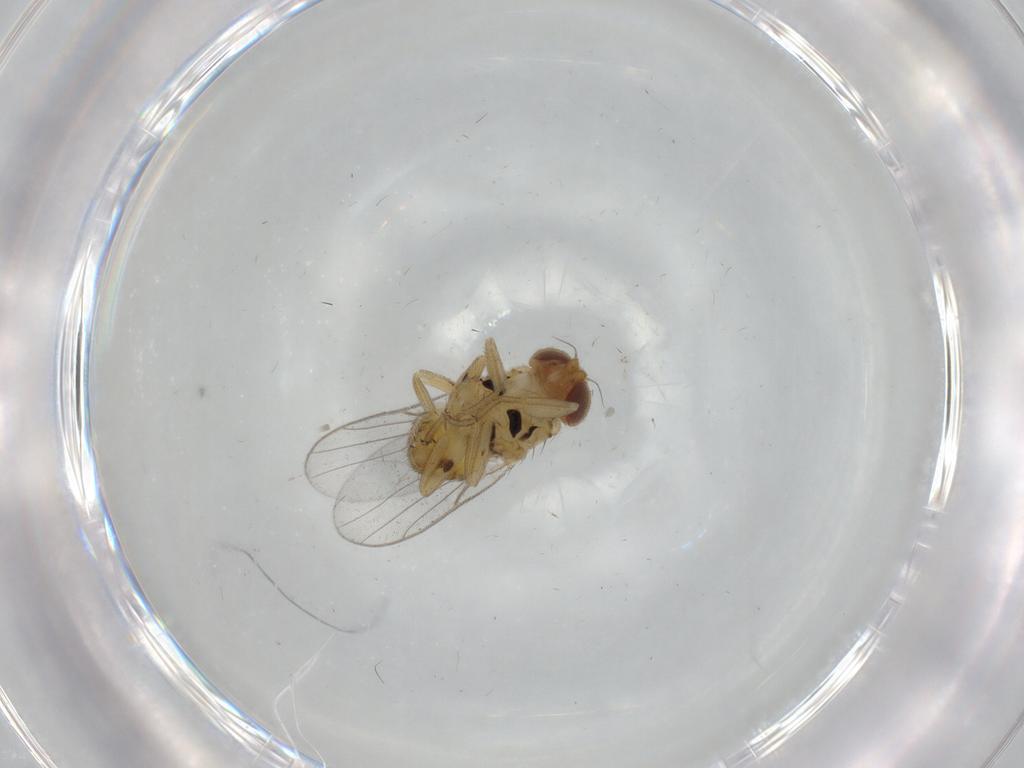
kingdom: Animalia
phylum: Arthropoda
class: Insecta
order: Diptera
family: Chloropidae
